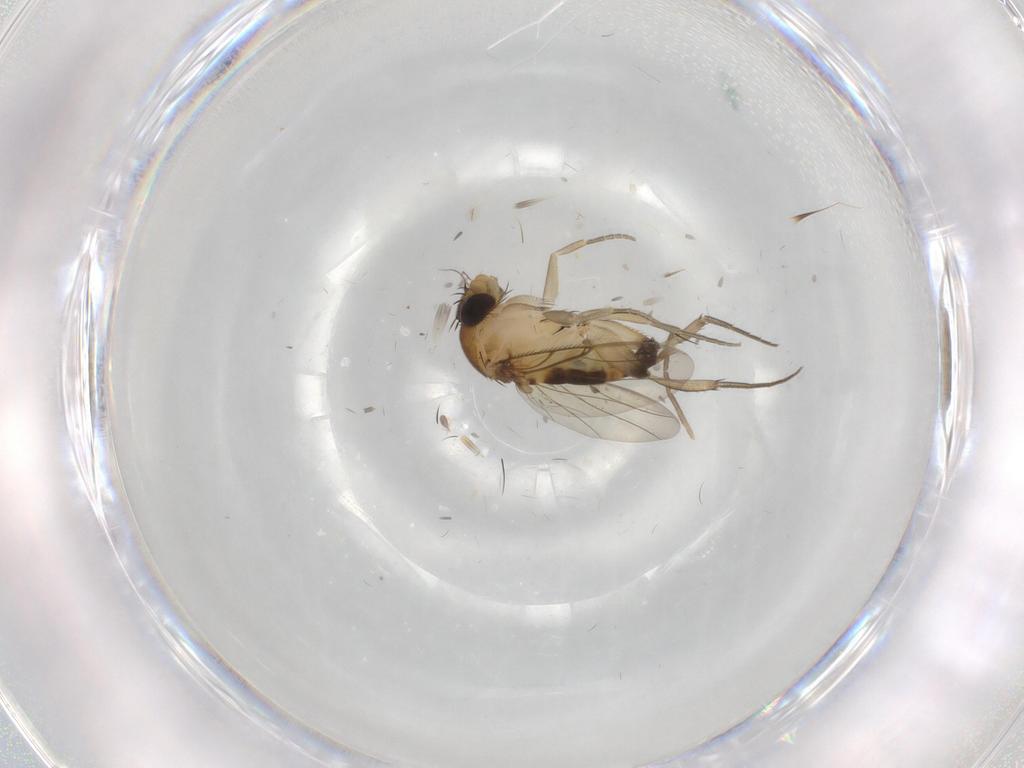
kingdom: Animalia
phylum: Arthropoda
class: Insecta
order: Diptera
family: Phoridae
